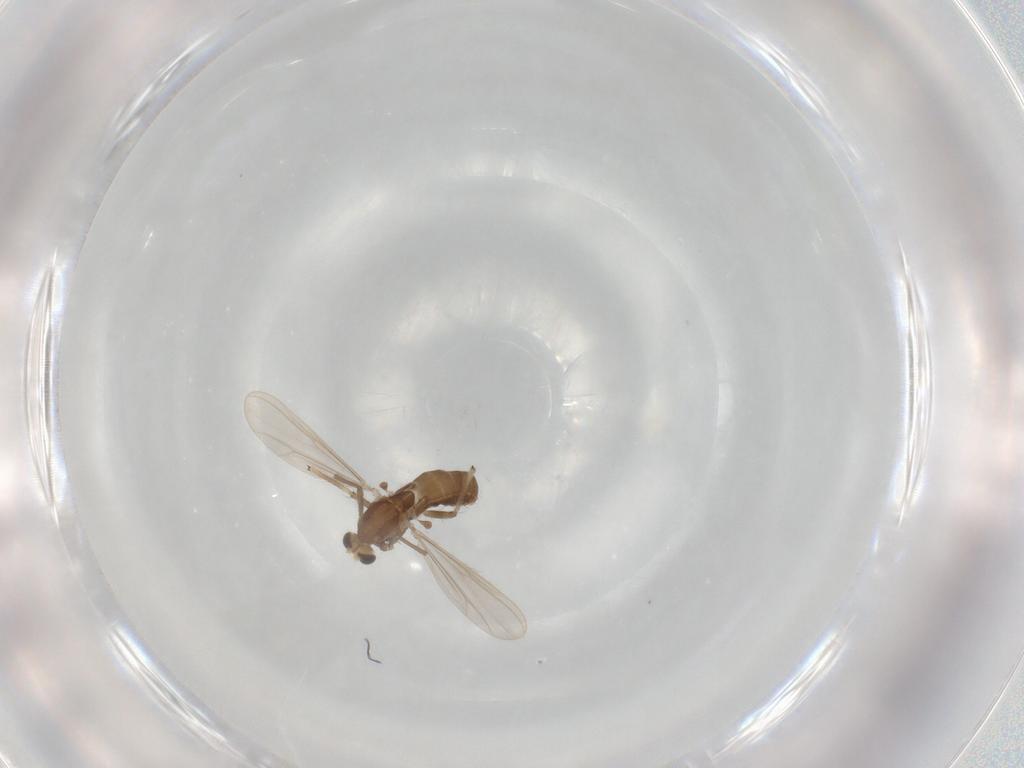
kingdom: Animalia
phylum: Arthropoda
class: Insecta
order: Diptera
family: Chironomidae
